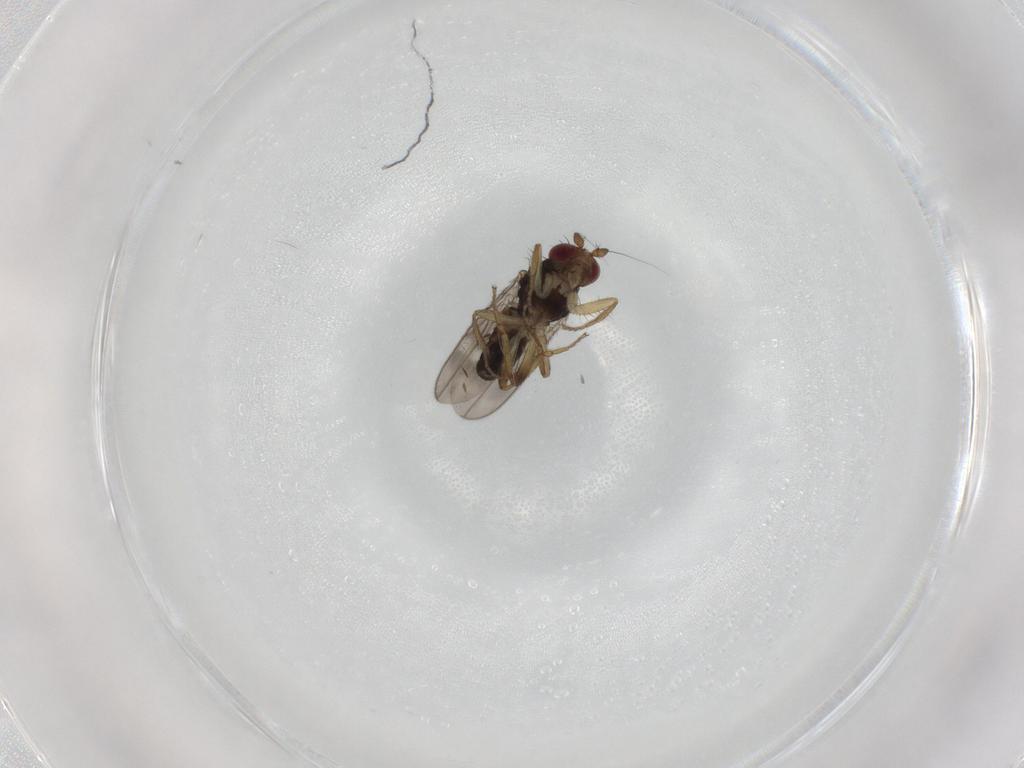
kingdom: Animalia
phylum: Arthropoda
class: Insecta
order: Diptera
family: Sphaeroceridae
